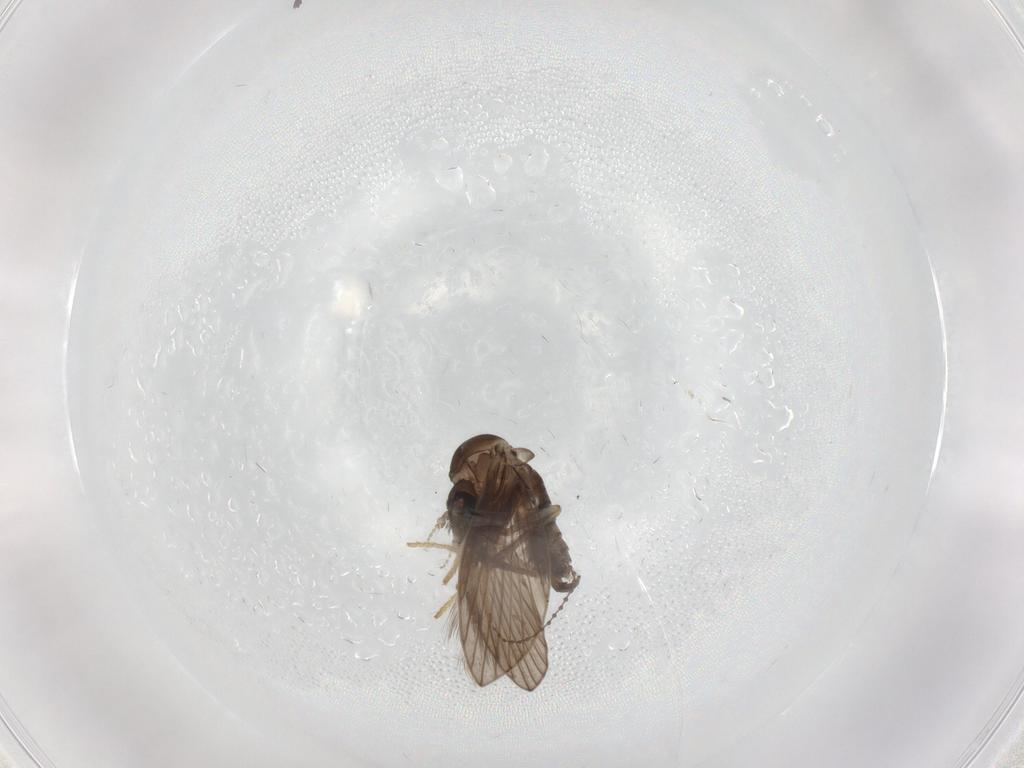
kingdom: Animalia
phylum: Arthropoda
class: Insecta
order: Diptera
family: Psychodidae
